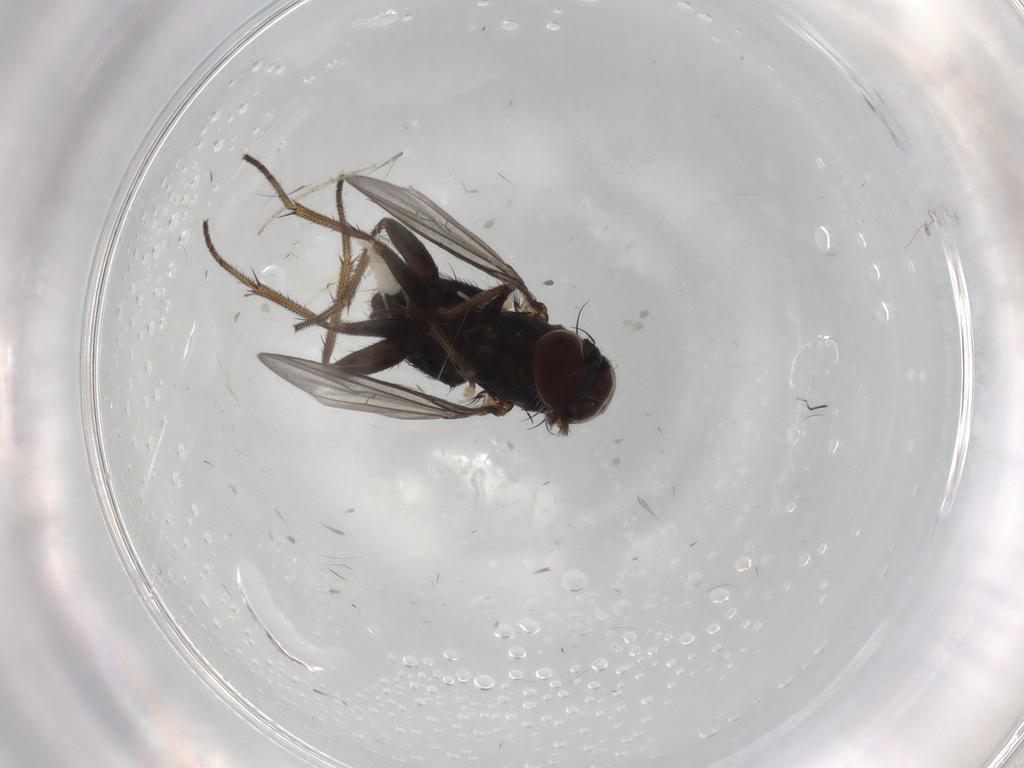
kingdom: Animalia
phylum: Arthropoda
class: Insecta
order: Diptera
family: Dolichopodidae
